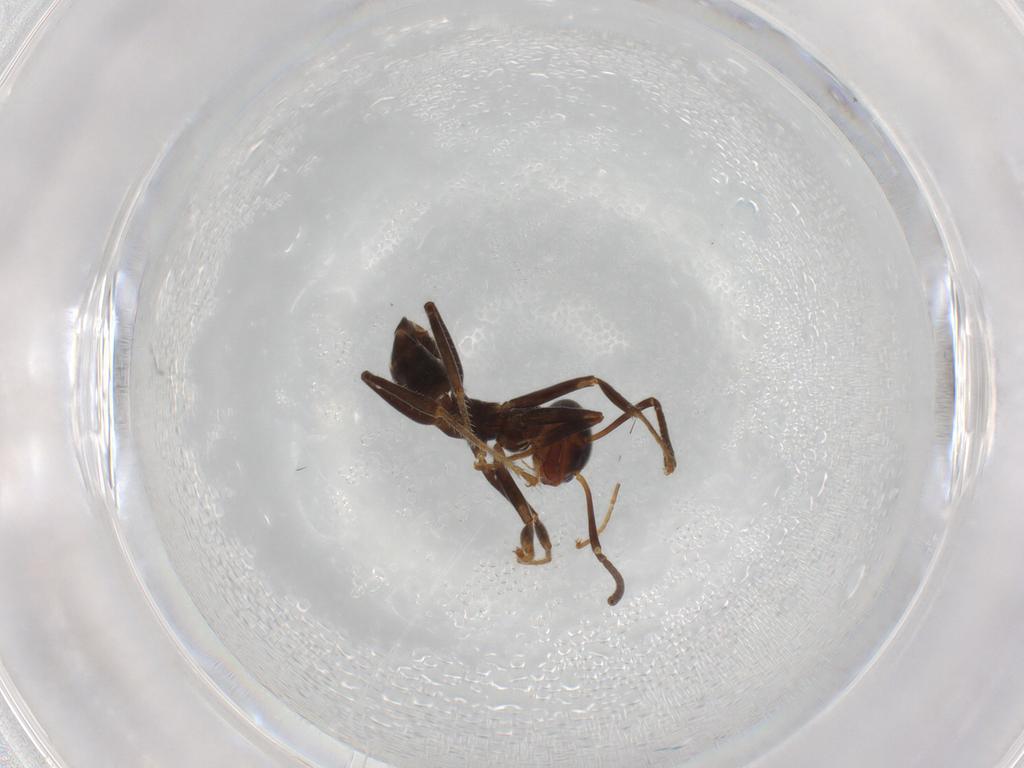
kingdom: Animalia
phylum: Arthropoda
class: Insecta
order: Hymenoptera
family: Formicidae
